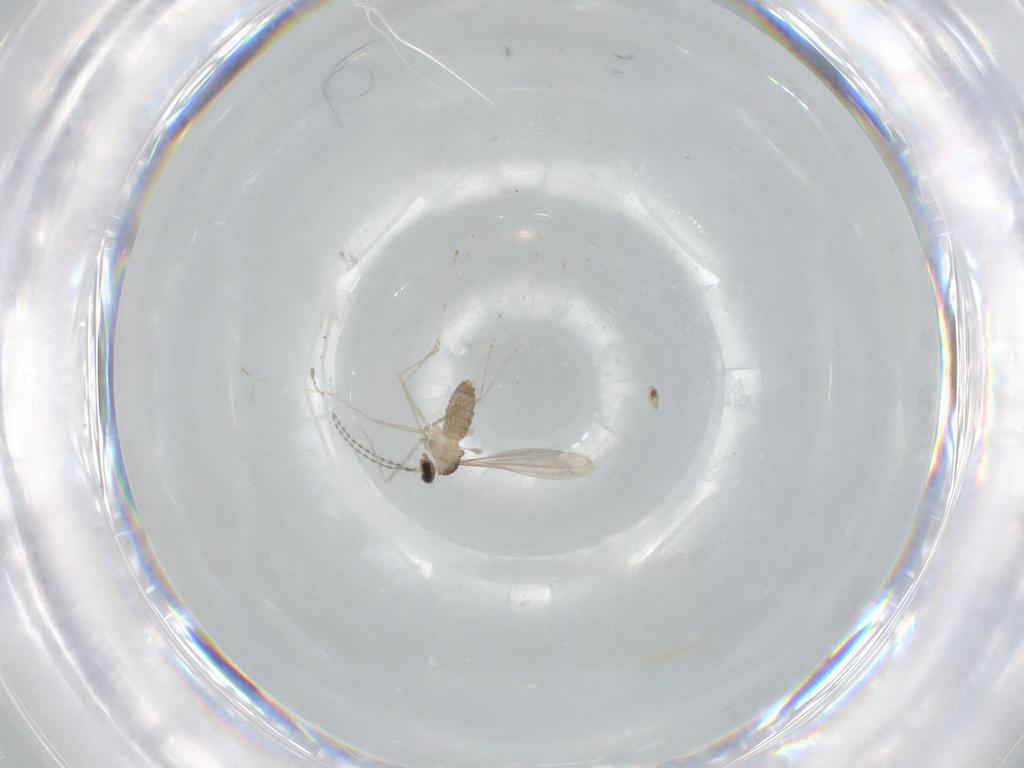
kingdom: Animalia
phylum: Arthropoda
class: Insecta
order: Diptera
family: Cecidomyiidae
